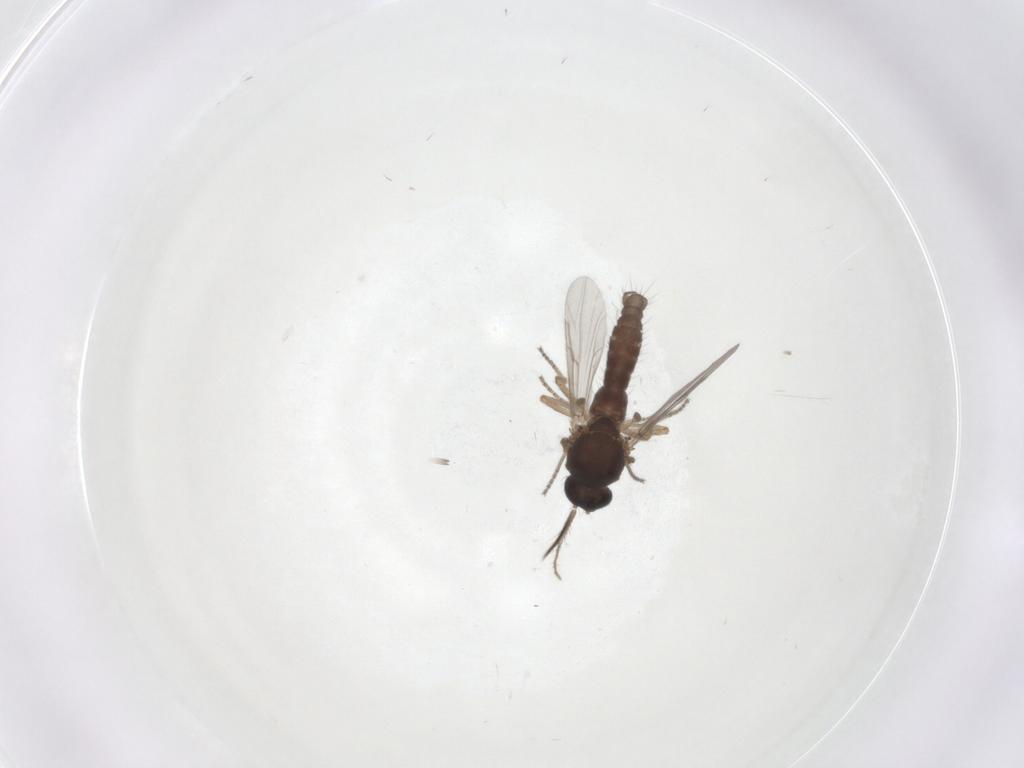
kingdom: Animalia
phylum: Arthropoda
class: Insecta
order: Diptera
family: Ceratopogonidae
